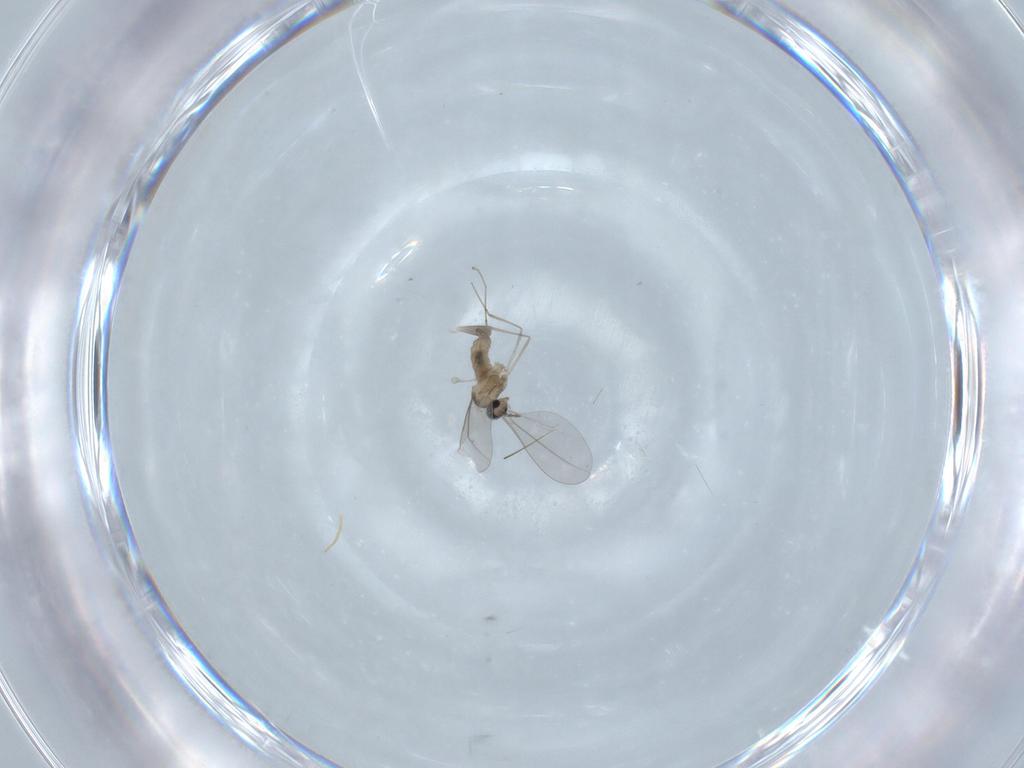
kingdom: Animalia
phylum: Arthropoda
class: Insecta
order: Diptera
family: Cecidomyiidae
